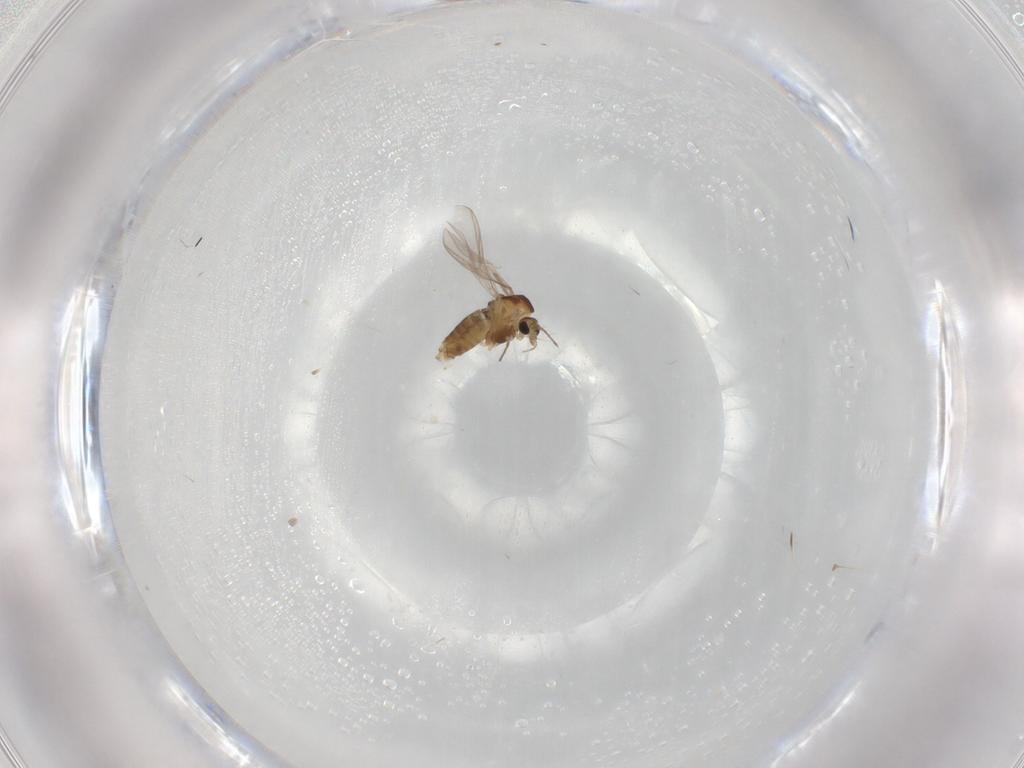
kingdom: Animalia
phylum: Arthropoda
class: Insecta
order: Diptera
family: Chironomidae
